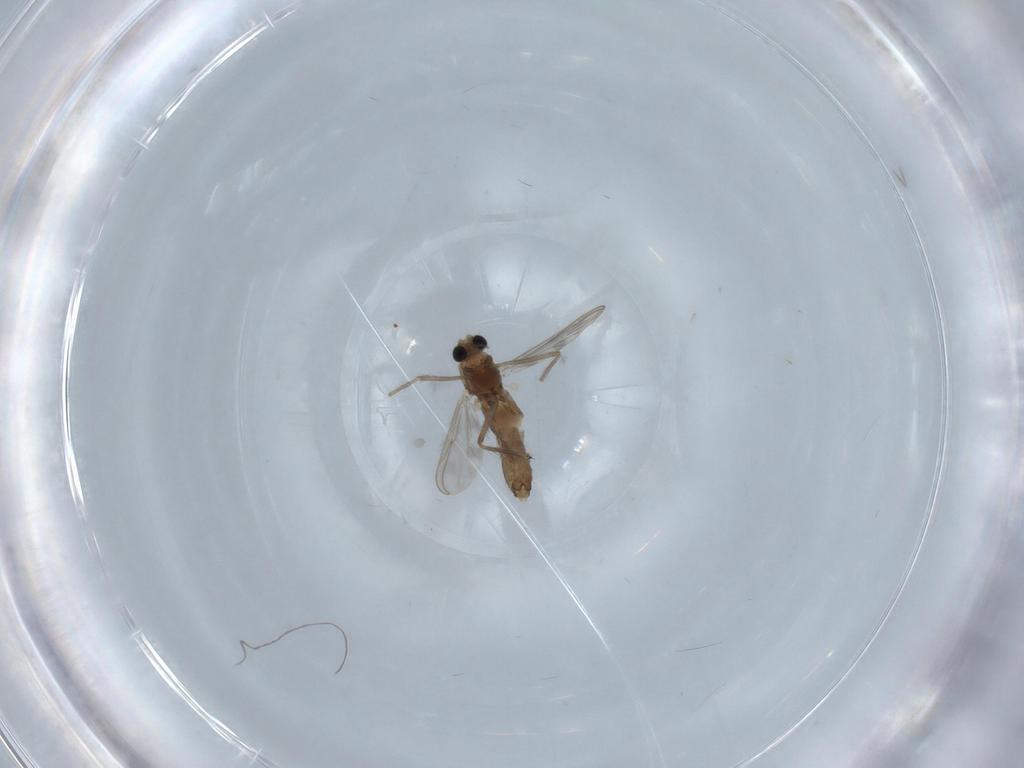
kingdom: Animalia
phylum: Arthropoda
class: Insecta
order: Diptera
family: Chironomidae
